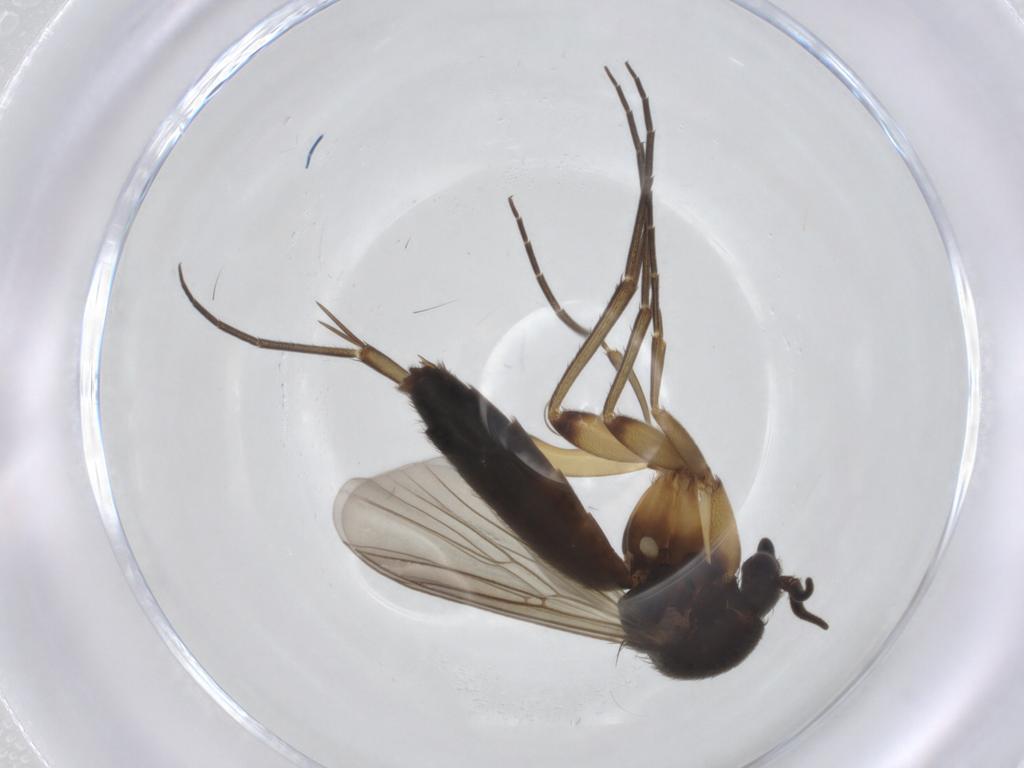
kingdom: Animalia
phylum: Arthropoda
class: Insecta
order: Diptera
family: Mycetophilidae
